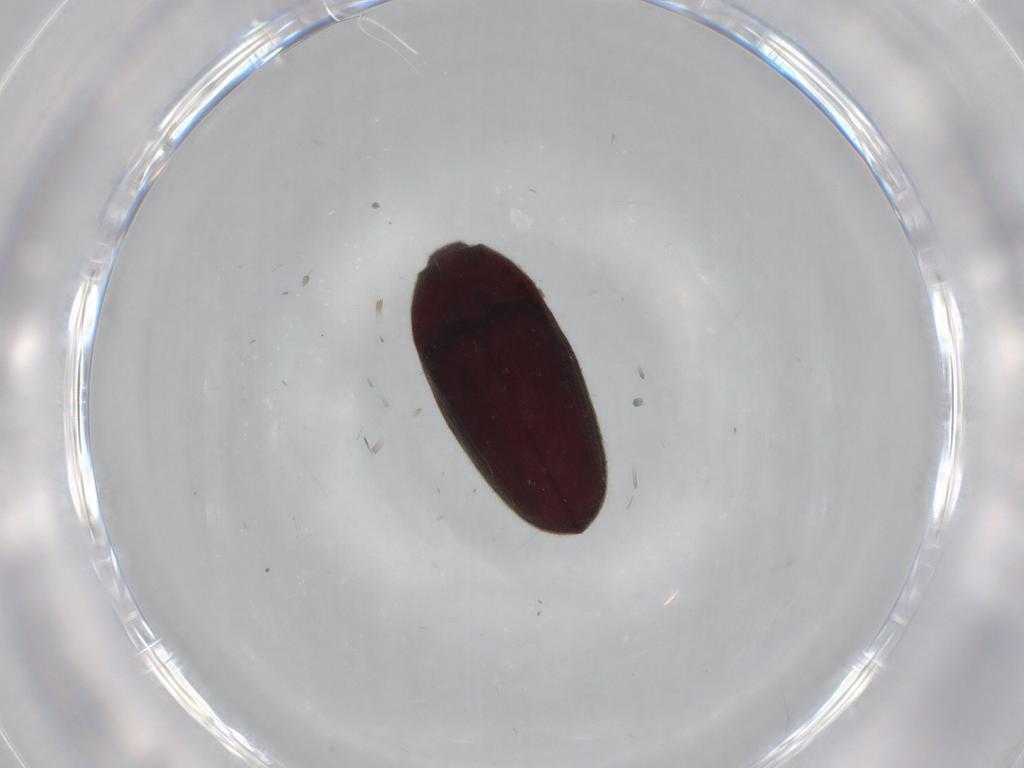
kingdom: Animalia
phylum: Arthropoda
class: Insecta
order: Coleoptera
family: Throscidae
